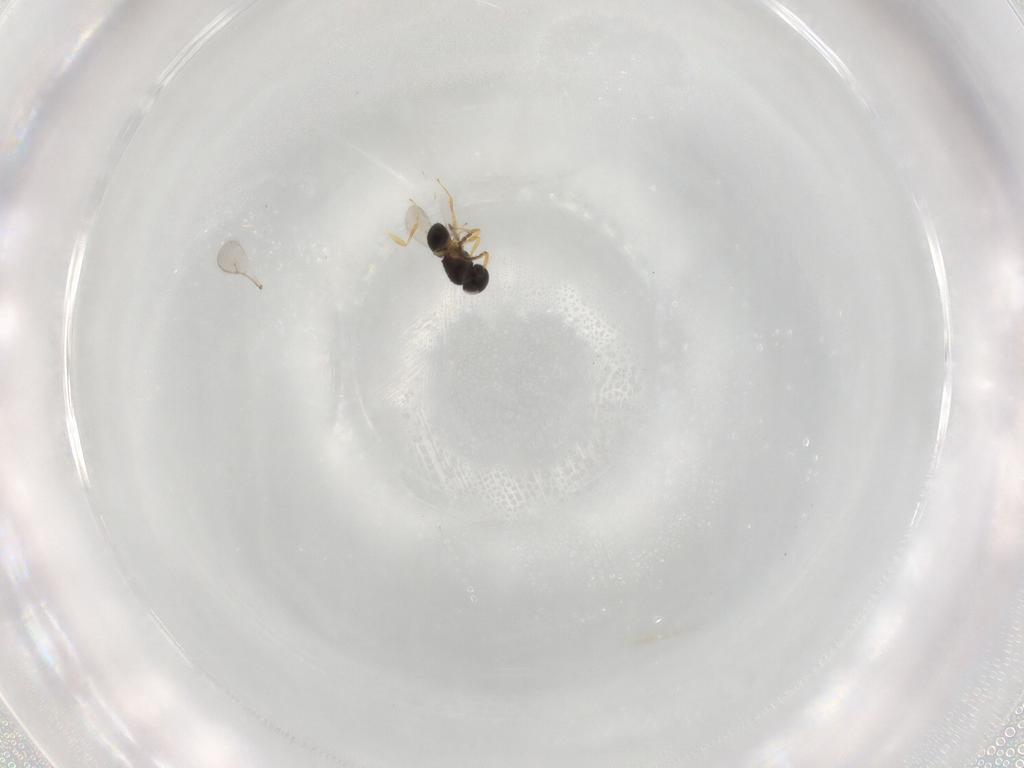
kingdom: Animalia
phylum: Arthropoda
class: Insecta
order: Hymenoptera
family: Scelionidae
